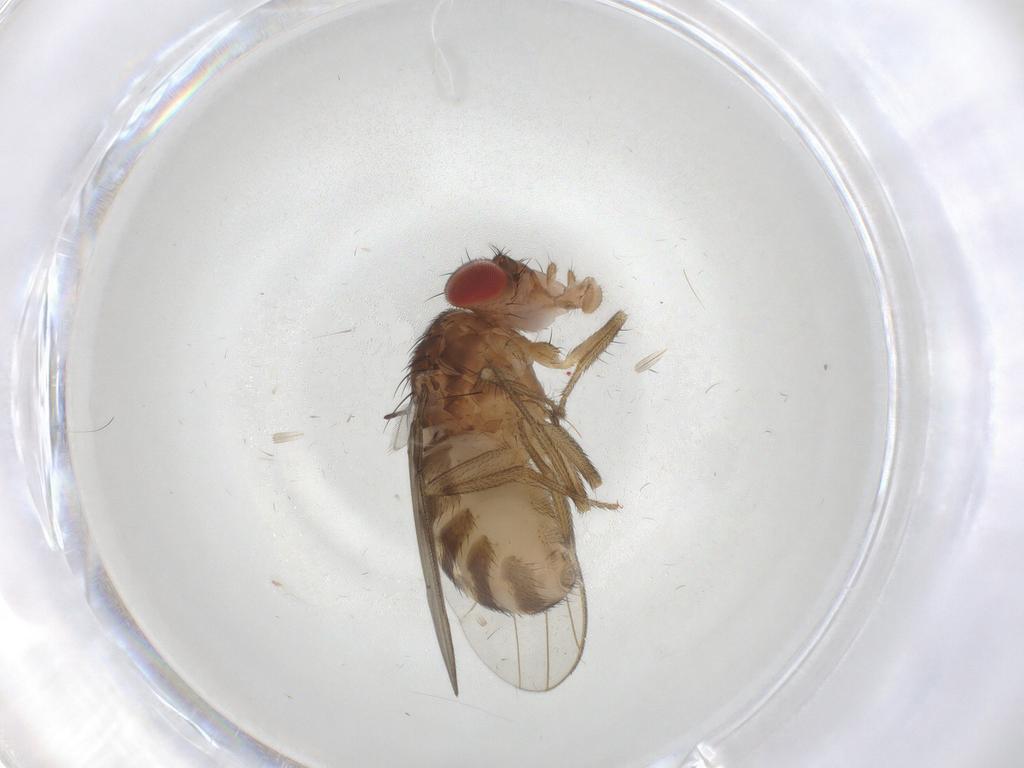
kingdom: Animalia
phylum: Arthropoda
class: Insecta
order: Diptera
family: Drosophilidae
